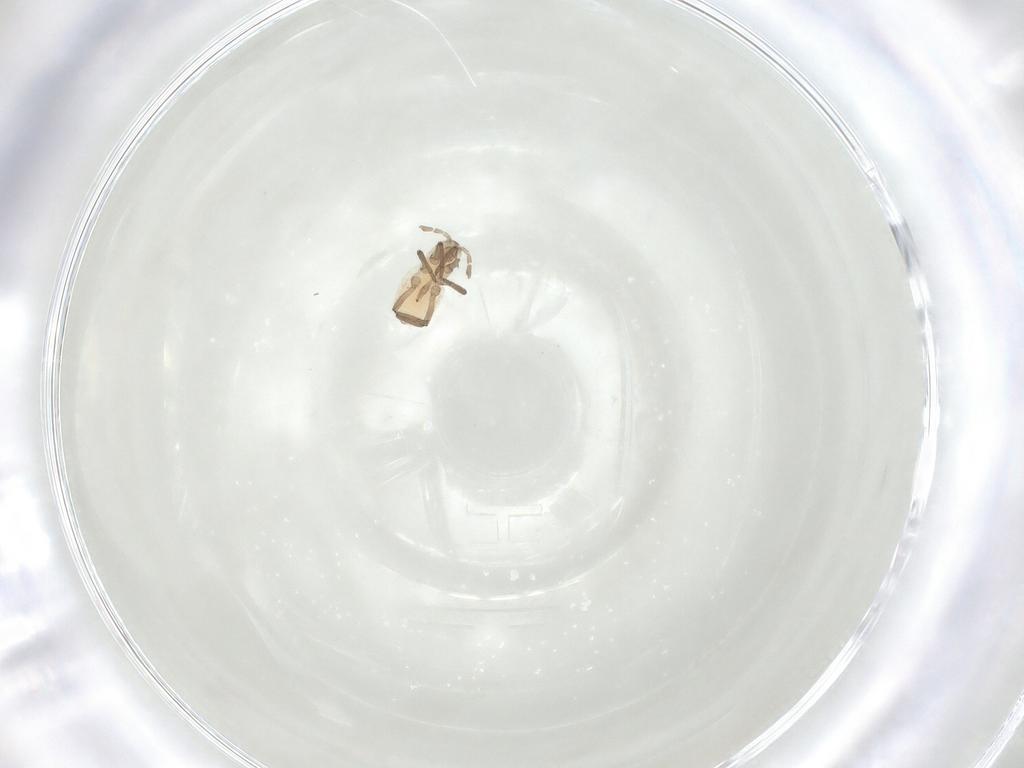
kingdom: Animalia
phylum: Arthropoda
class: Insecta
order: Hemiptera
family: Aphididae
